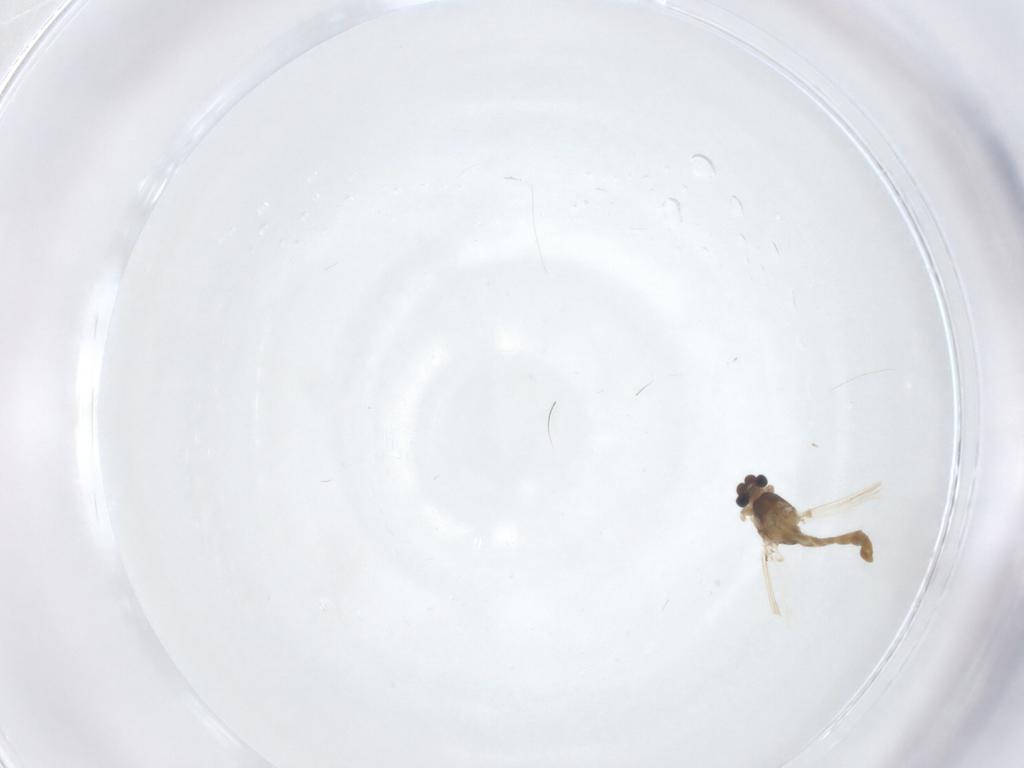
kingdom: Animalia
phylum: Arthropoda
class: Insecta
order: Diptera
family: Chironomidae
